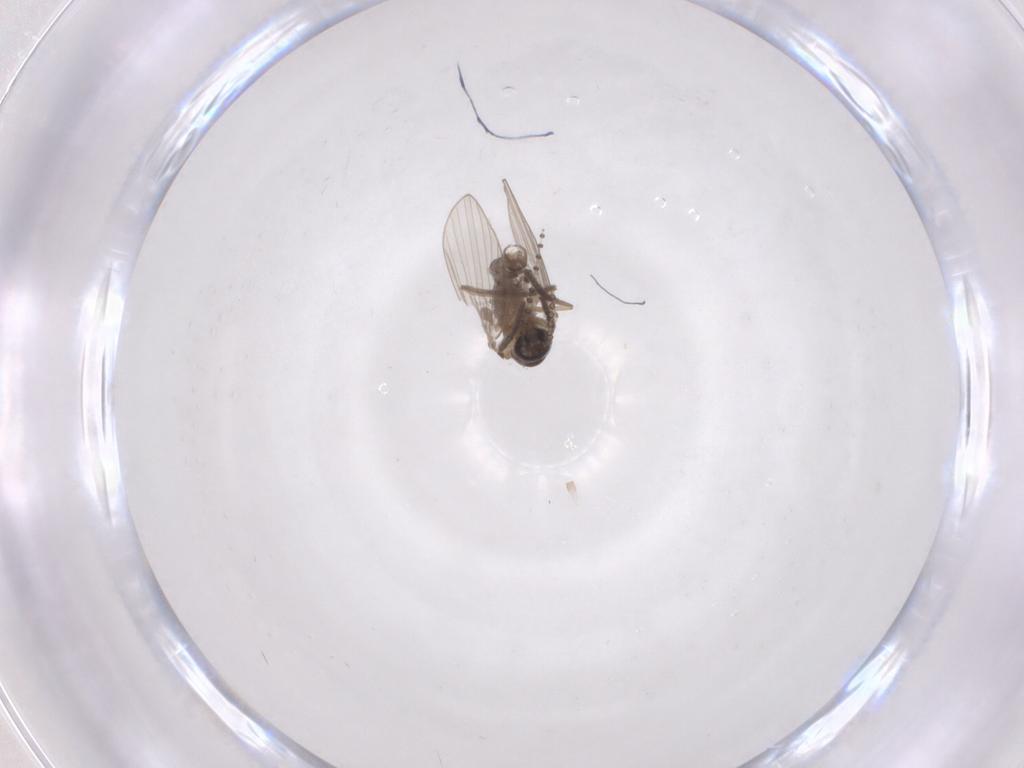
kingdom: Animalia
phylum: Arthropoda
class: Insecta
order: Diptera
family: Psychodidae
